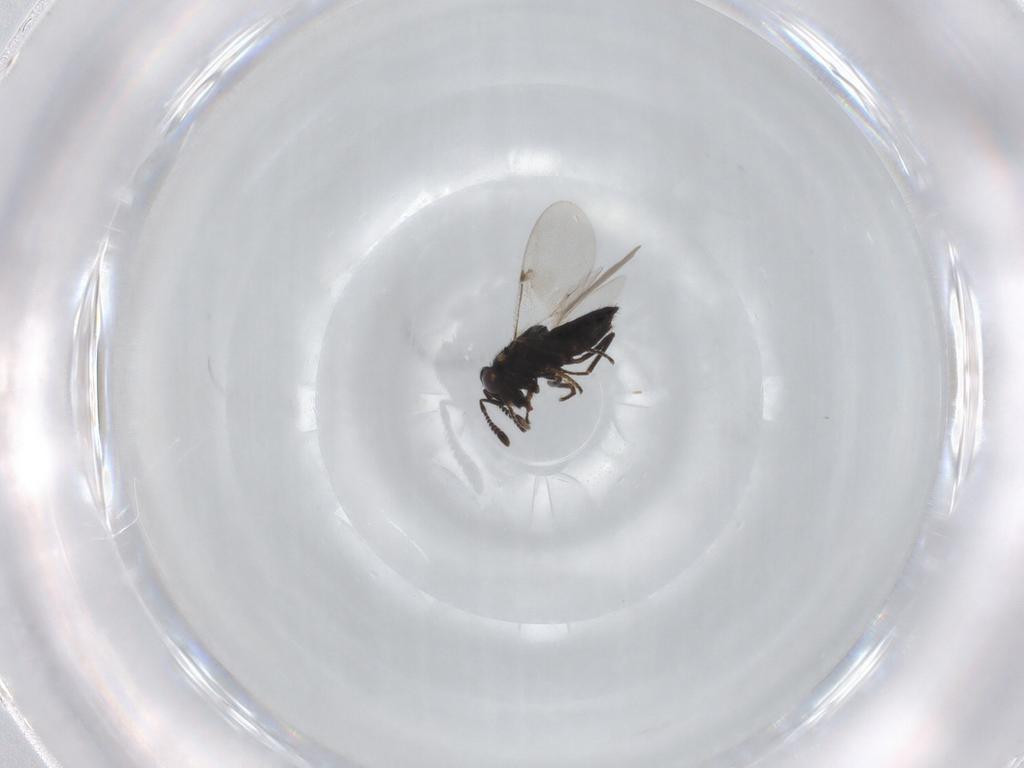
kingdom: Animalia
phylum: Arthropoda
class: Insecta
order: Hymenoptera
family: Encyrtidae
